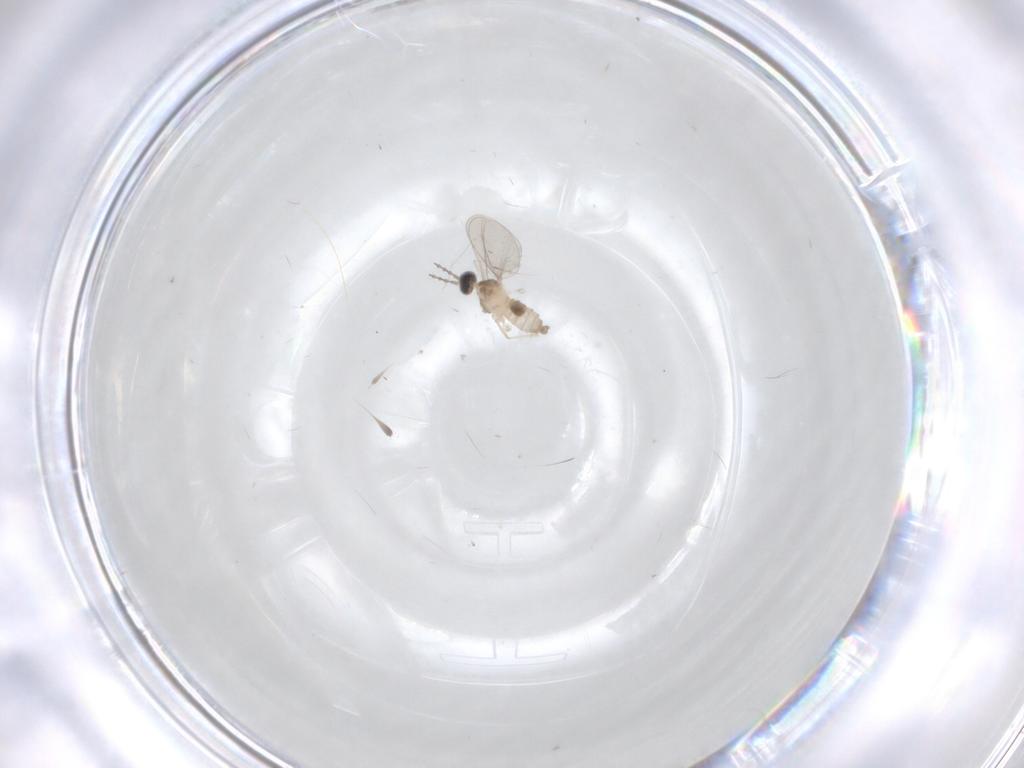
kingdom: Animalia
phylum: Arthropoda
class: Insecta
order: Diptera
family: Cecidomyiidae
